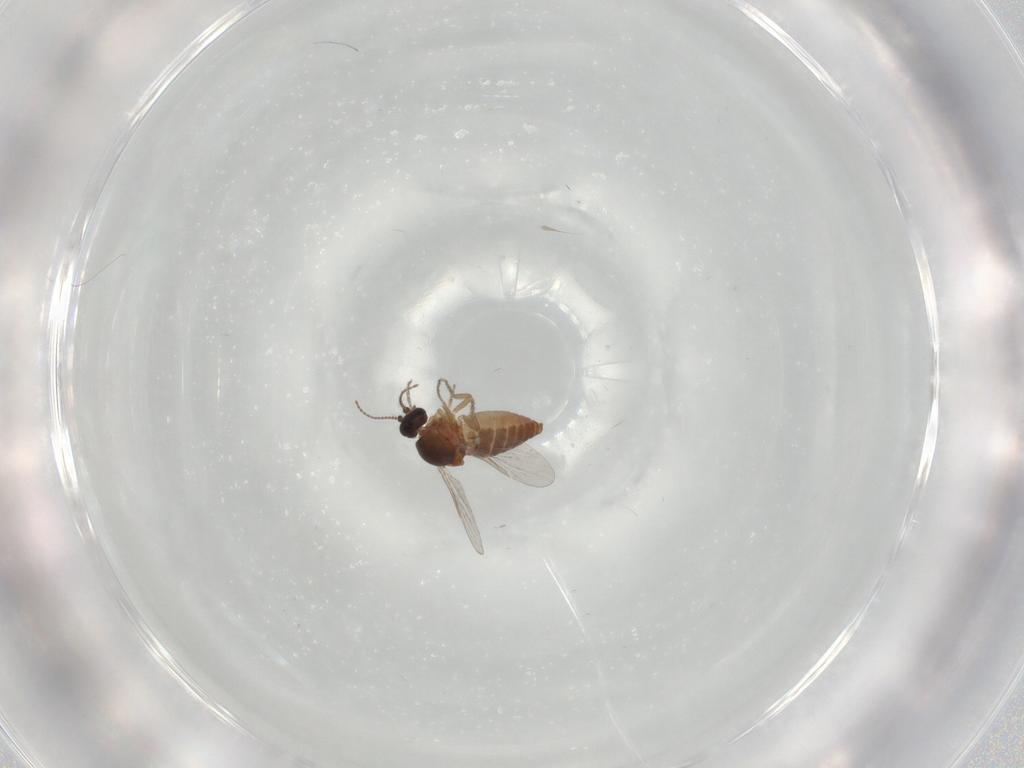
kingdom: Animalia
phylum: Arthropoda
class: Insecta
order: Diptera
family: Ceratopogonidae
